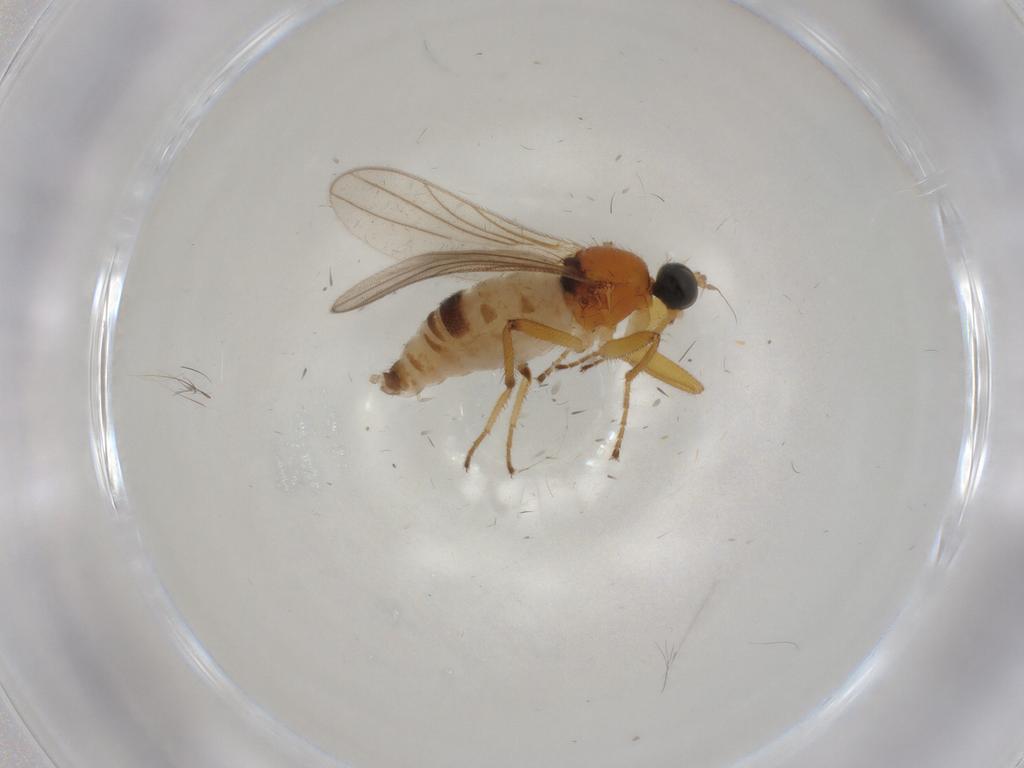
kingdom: Animalia
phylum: Arthropoda
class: Insecta
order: Diptera
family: Hybotidae
